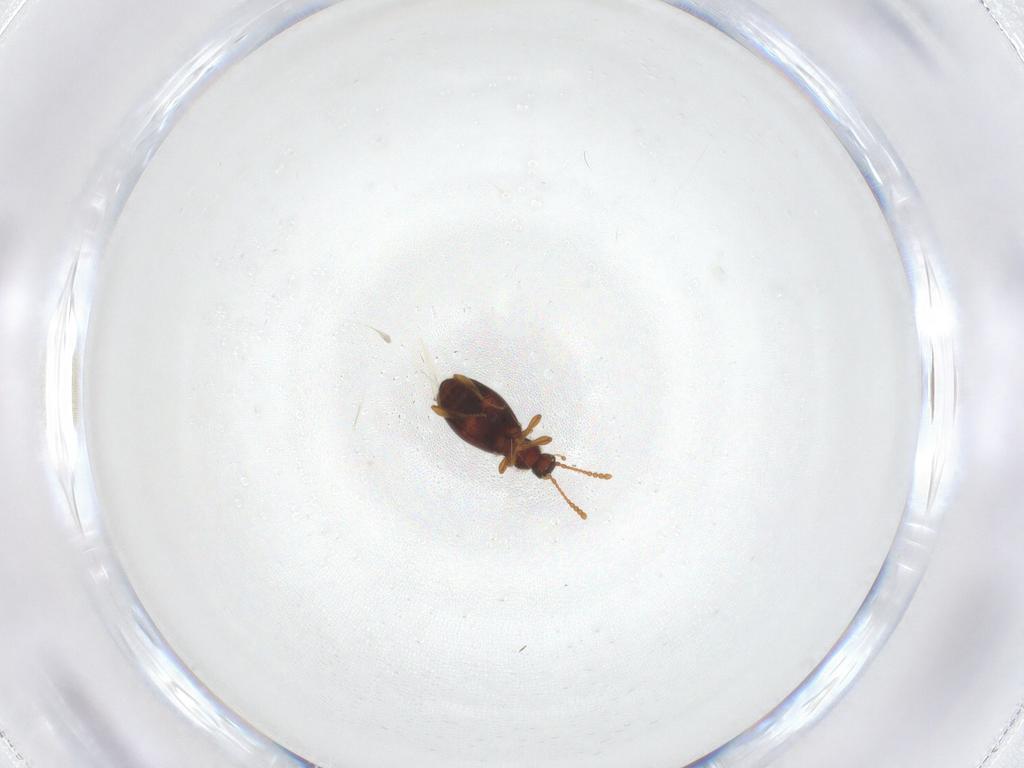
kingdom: Animalia
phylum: Arthropoda
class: Insecta
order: Coleoptera
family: Staphylinidae
